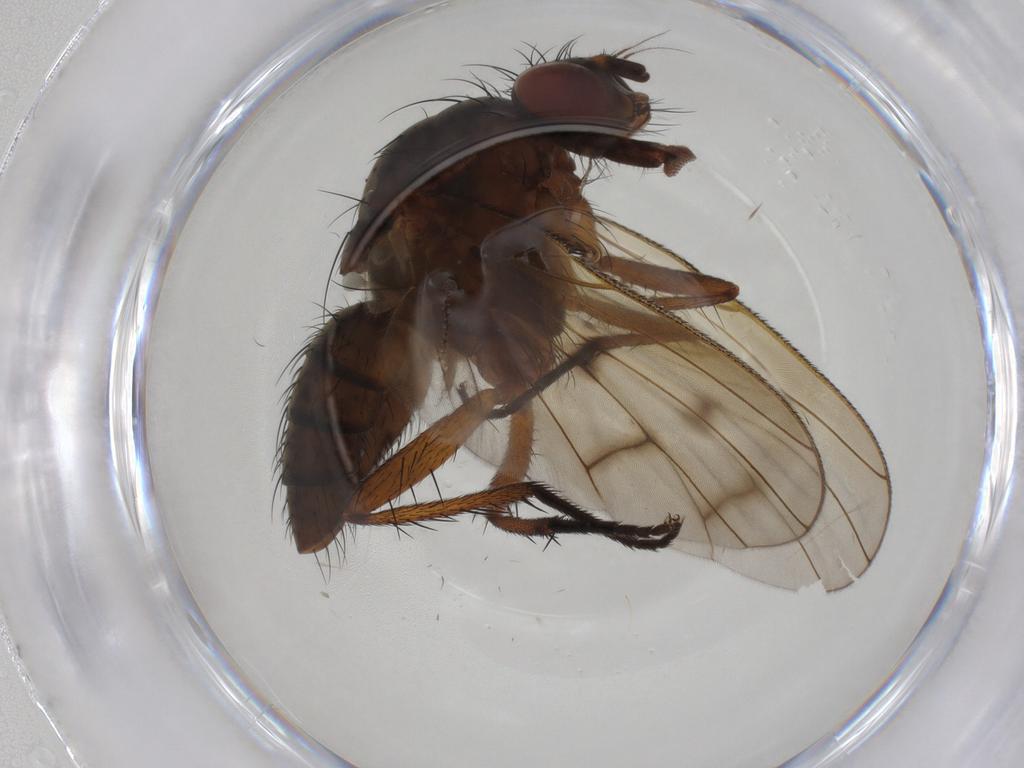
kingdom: Animalia
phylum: Arthropoda
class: Insecta
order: Diptera
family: Anthomyiidae
